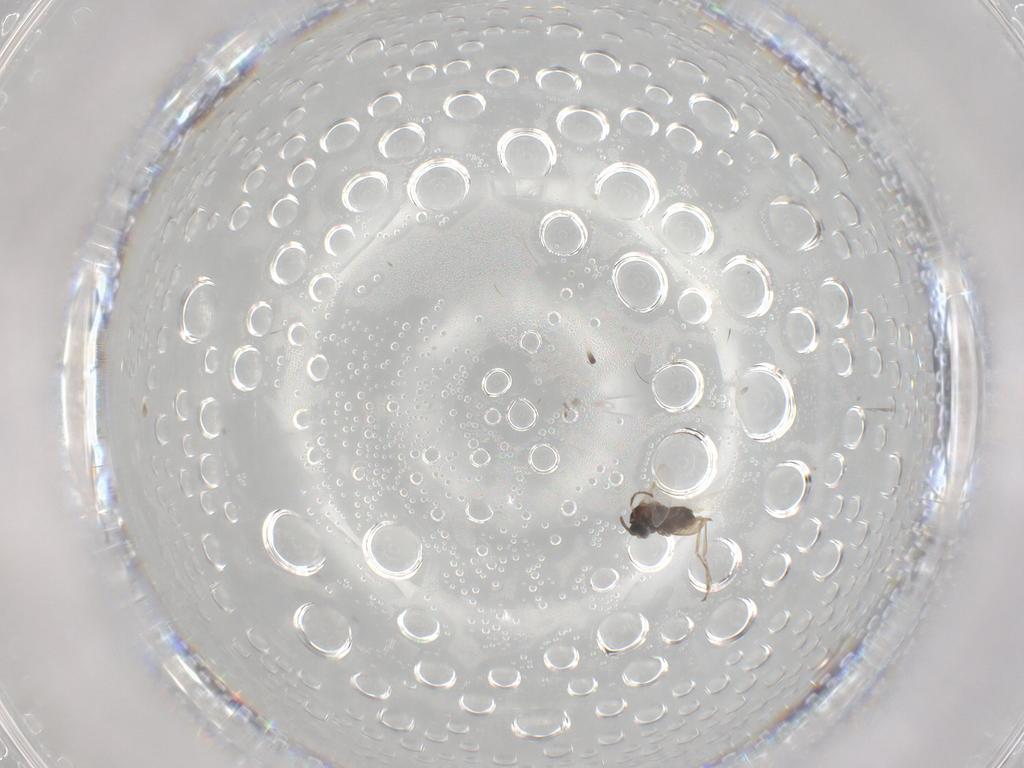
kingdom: Animalia
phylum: Arthropoda
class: Insecta
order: Diptera
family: Cecidomyiidae
